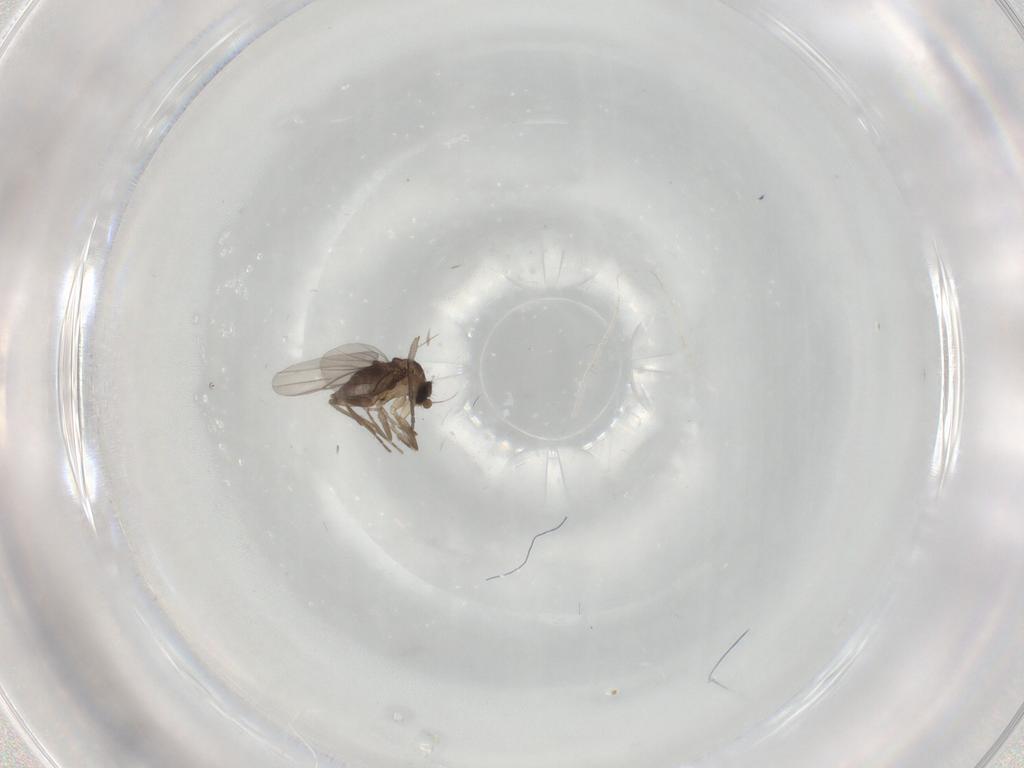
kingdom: Animalia
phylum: Arthropoda
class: Insecta
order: Diptera
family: Sciaridae
